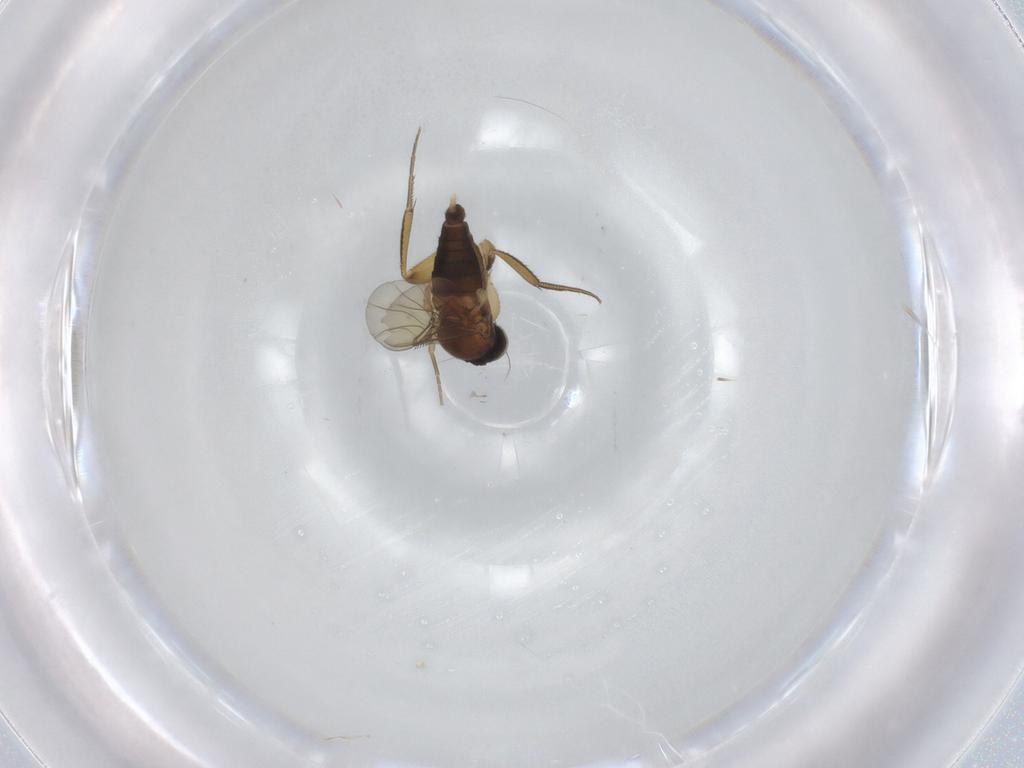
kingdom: Animalia
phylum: Arthropoda
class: Insecta
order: Diptera
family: Phoridae
